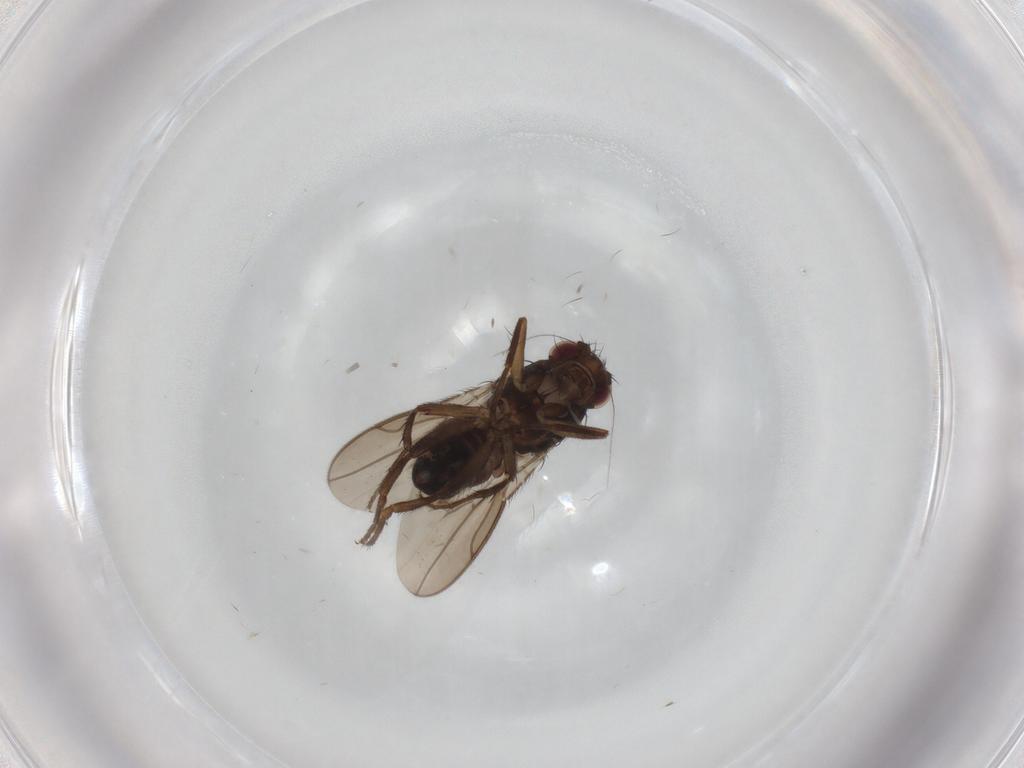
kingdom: Animalia
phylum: Arthropoda
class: Insecta
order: Diptera
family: Sphaeroceridae
